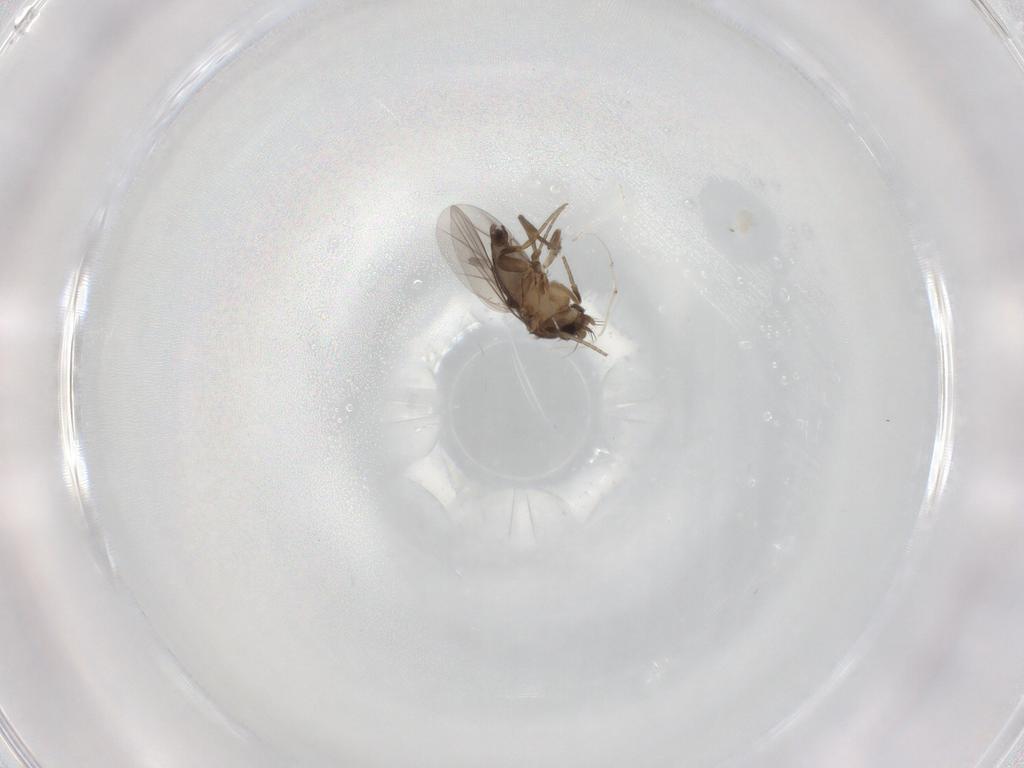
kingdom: Animalia
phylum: Arthropoda
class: Insecta
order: Diptera
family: Phoridae
